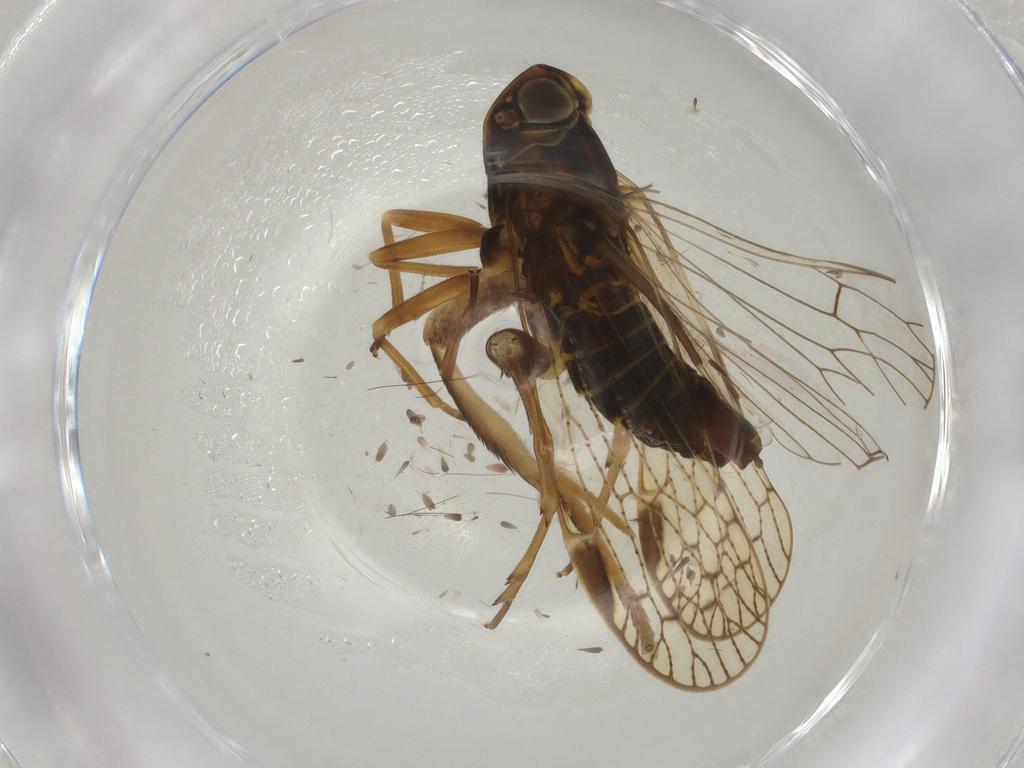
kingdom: Animalia
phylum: Arthropoda
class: Insecta
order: Hemiptera
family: Cixiidae
